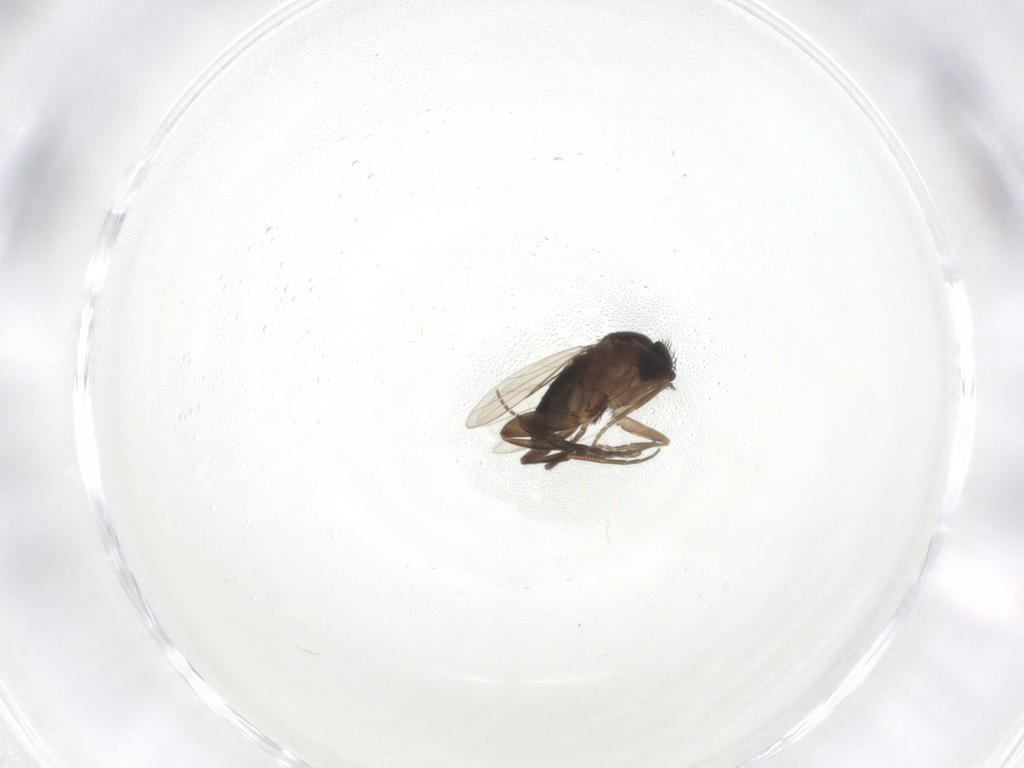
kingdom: Animalia
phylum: Arthropoda
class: Insecta
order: Diptera
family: Phoridae
